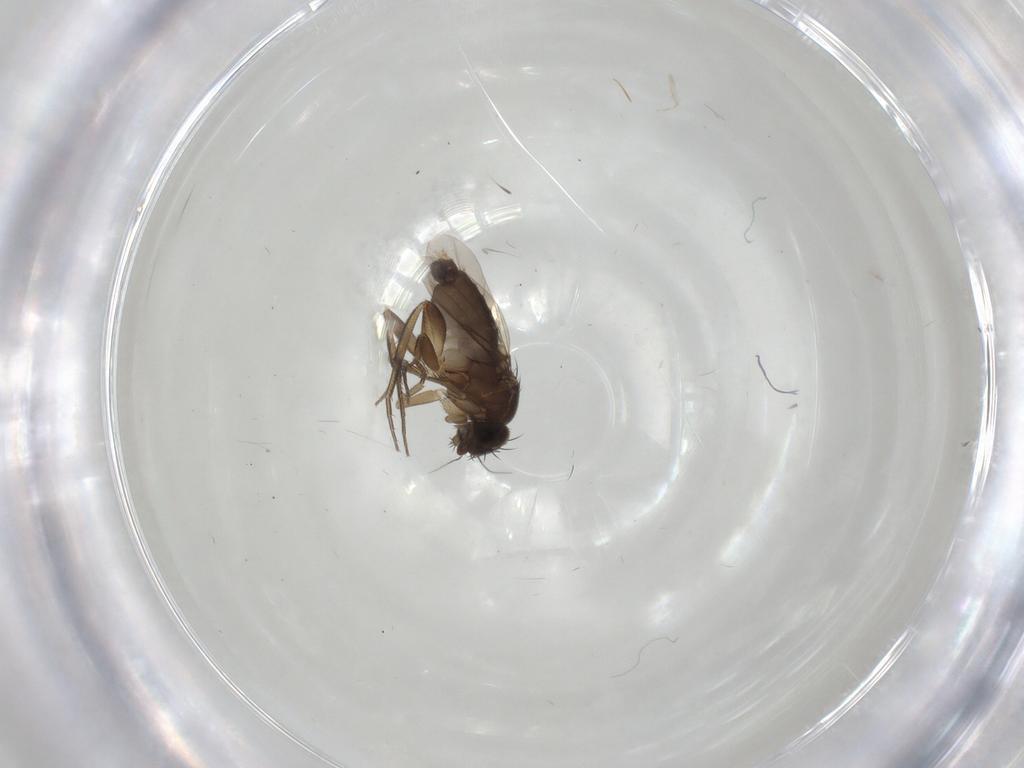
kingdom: Animalia
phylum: Arthropoda
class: Insecta
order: Diptera
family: Phoridae
